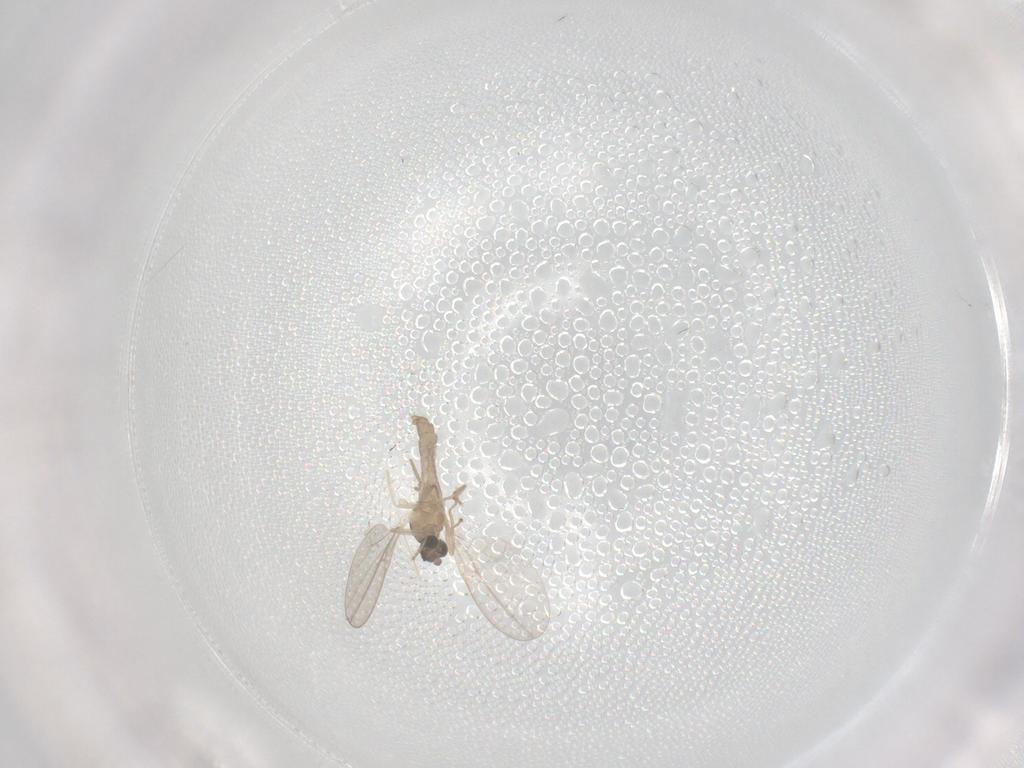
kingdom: Animalia
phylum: Arthropoda
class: Insecta
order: Diptera
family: Cecidomyiidae
